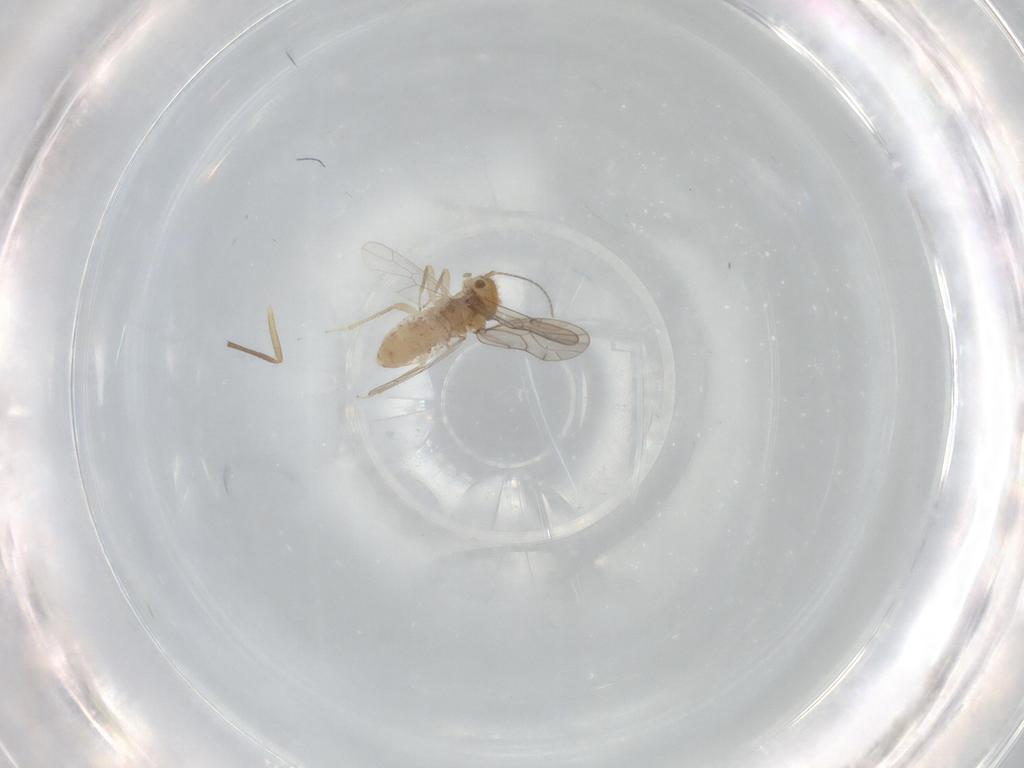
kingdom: Animalia
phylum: Arthropoda
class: Insecta
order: Psocodea
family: Ectopsocidae
